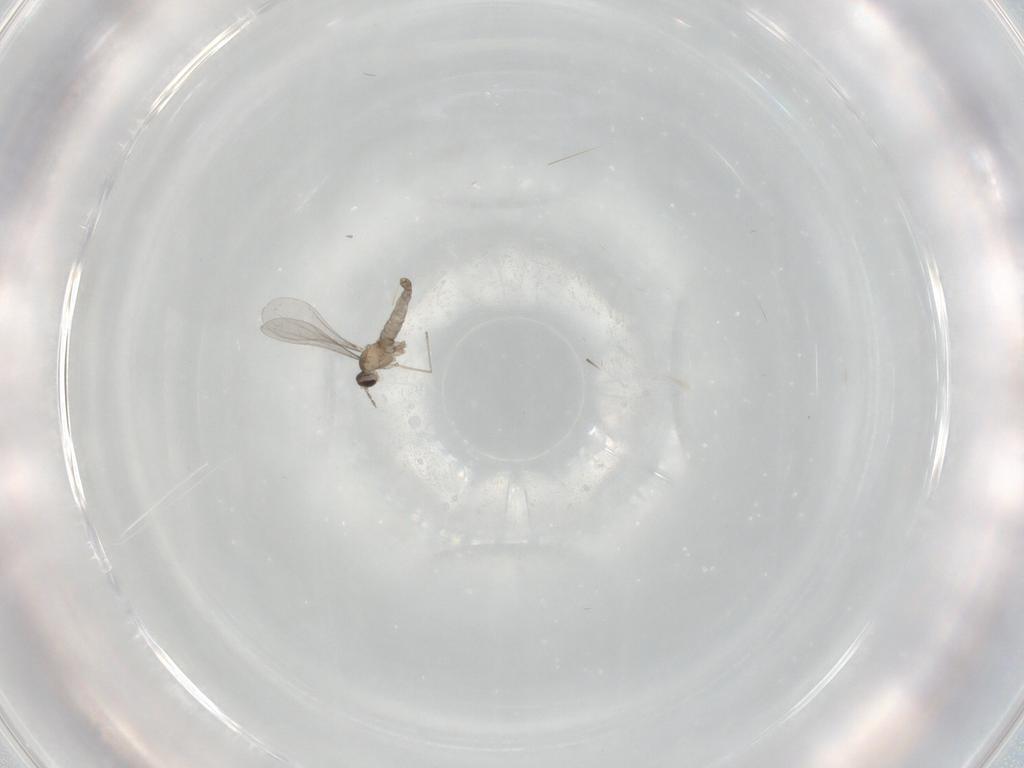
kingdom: Animalia
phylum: Arthropoda
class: Insecta
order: Diptera
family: Cecidomyiidae
